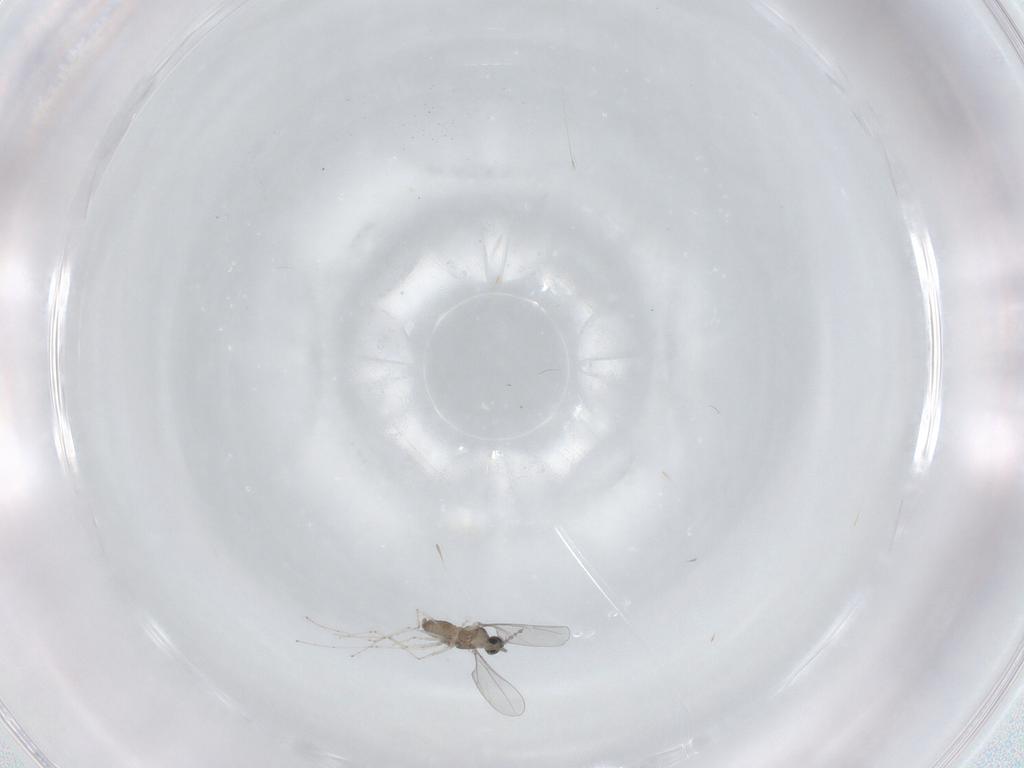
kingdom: Animalia
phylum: Arthropoda
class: Insecta
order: Diptera
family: Cecidomyiidae
